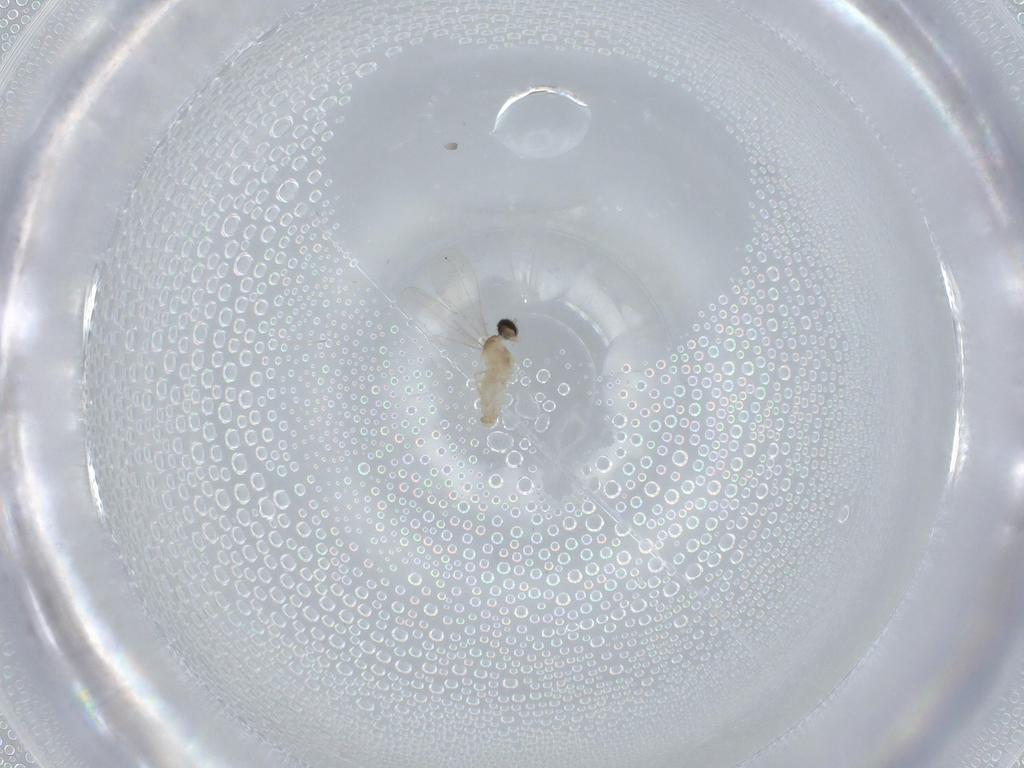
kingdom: Animalia
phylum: Arthropoda
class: Insecta
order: Diptera
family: Cecidomyiidae
